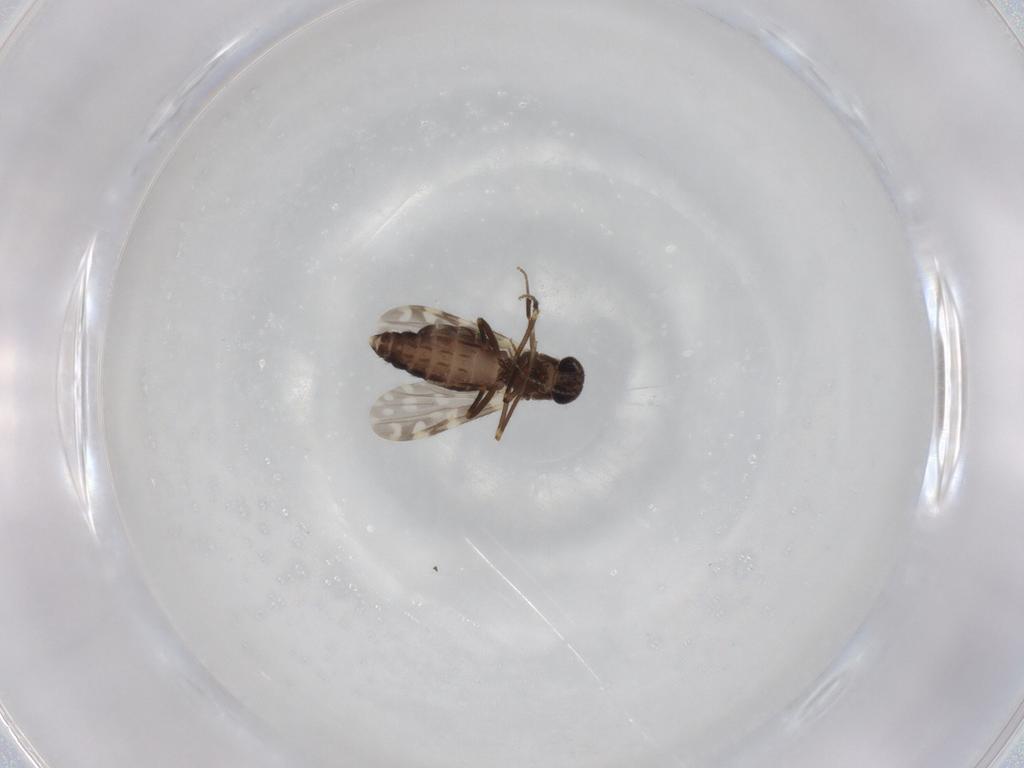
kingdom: Animalia
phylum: Arthropoda
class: Insecta
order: Diptera
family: Ceratopogonidae
